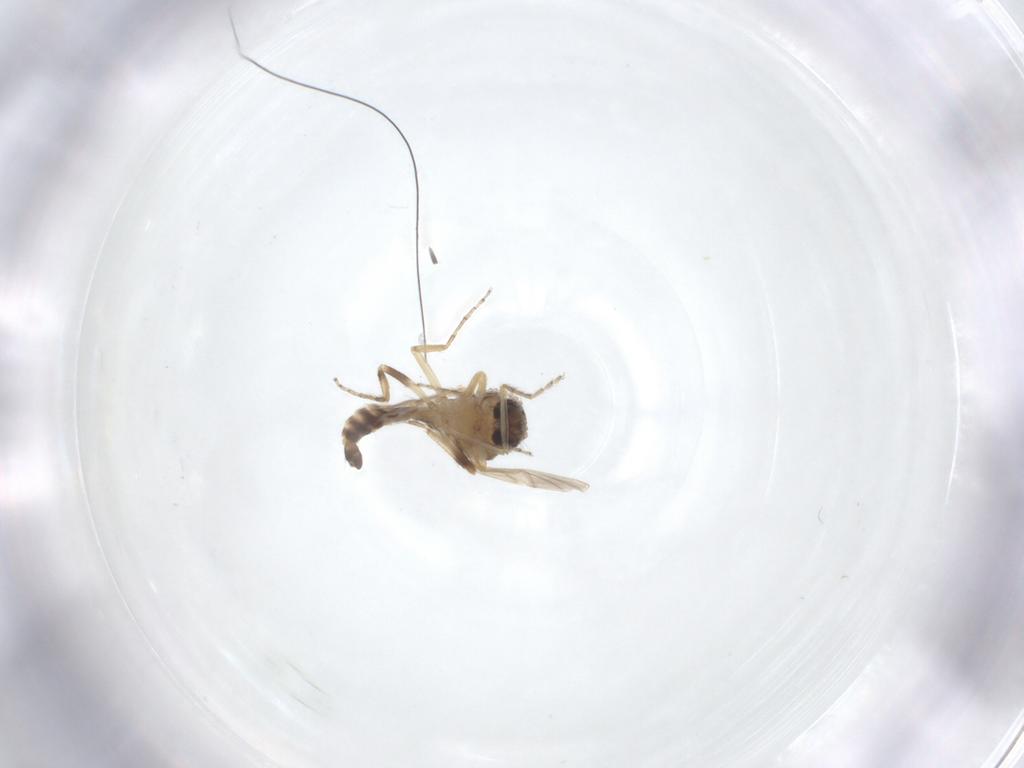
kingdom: Animalia
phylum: Arthropoda
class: Insecta
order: Diptera
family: Ceratopogonidae
